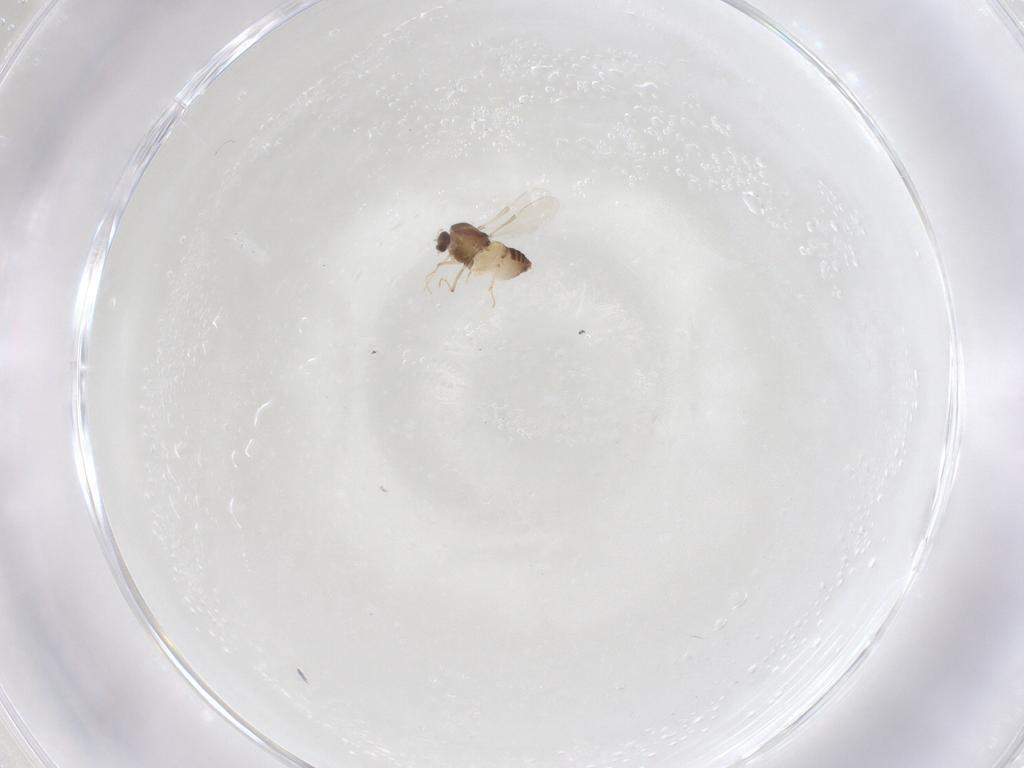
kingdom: Animalia
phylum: Arthropoda
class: Insecta
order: Diptera
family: Chironomidae
